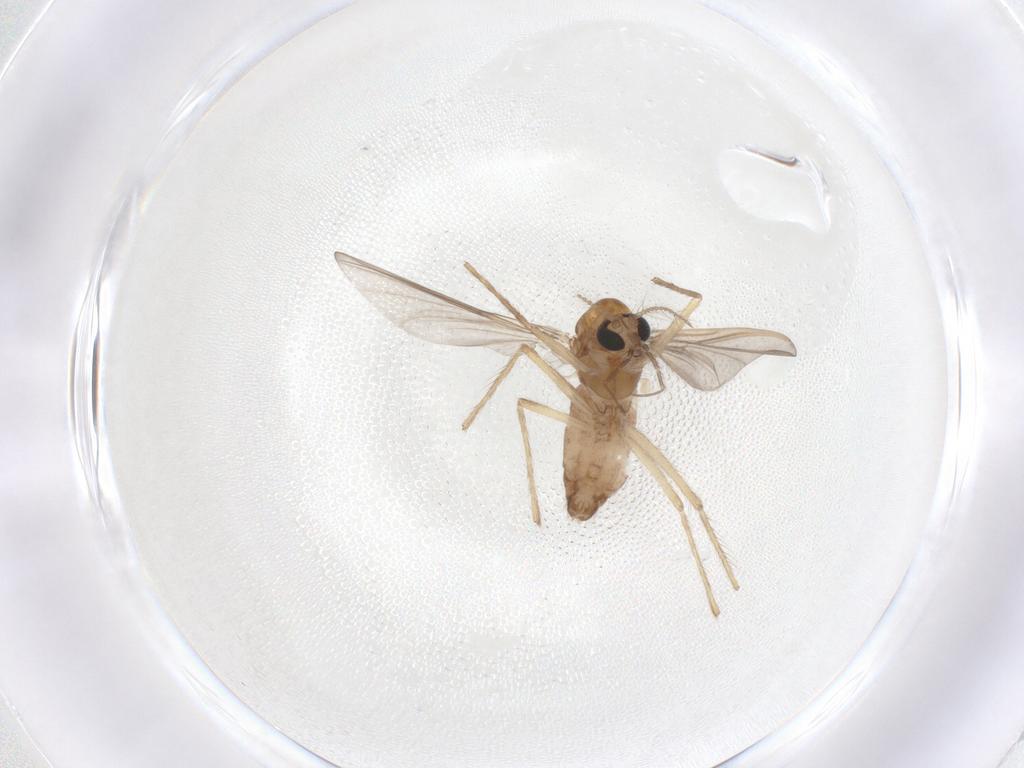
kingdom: Animalia
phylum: Arthropoda
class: Insecta
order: Diptera
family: Chironomidae
